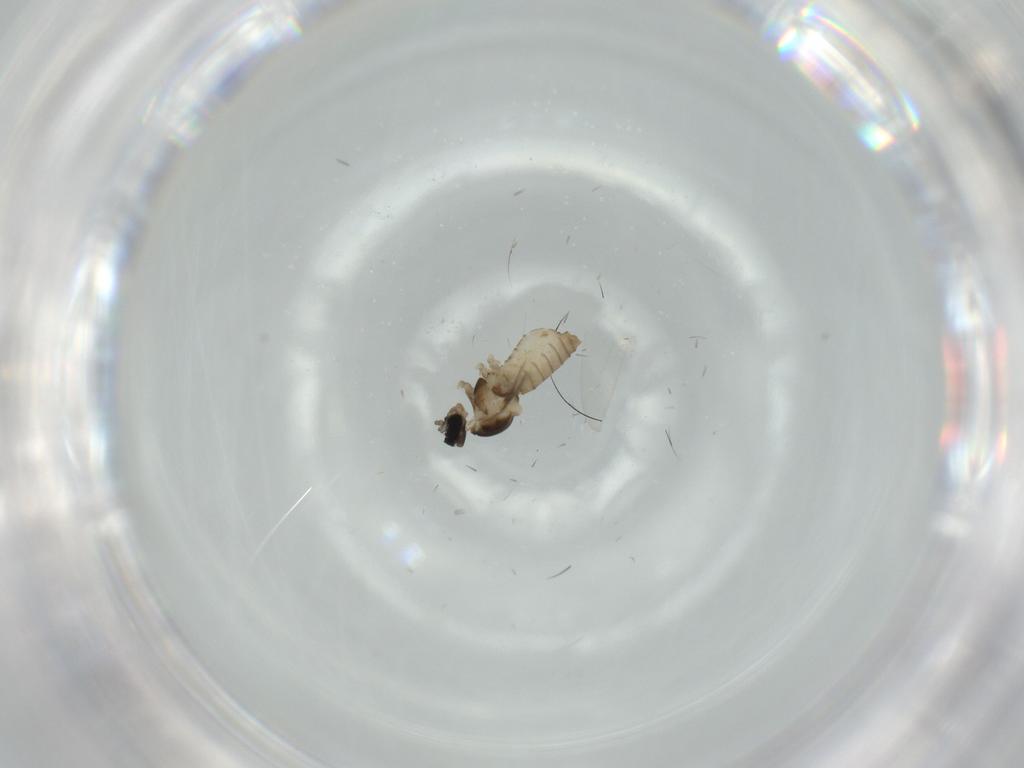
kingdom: Animalia
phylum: Arthropoda
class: Insecta
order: Diptera
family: Cecidomyiidae
